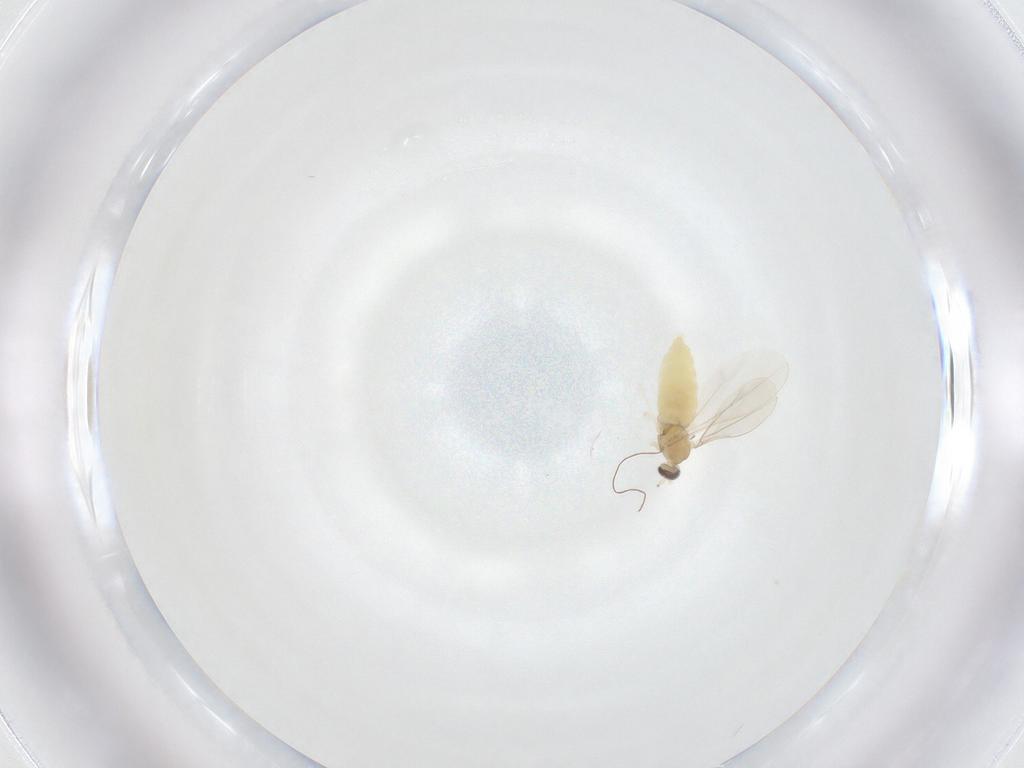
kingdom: Animalia
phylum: Arthropoda
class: Insecta
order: Diptera
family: Cecidomyiidae
